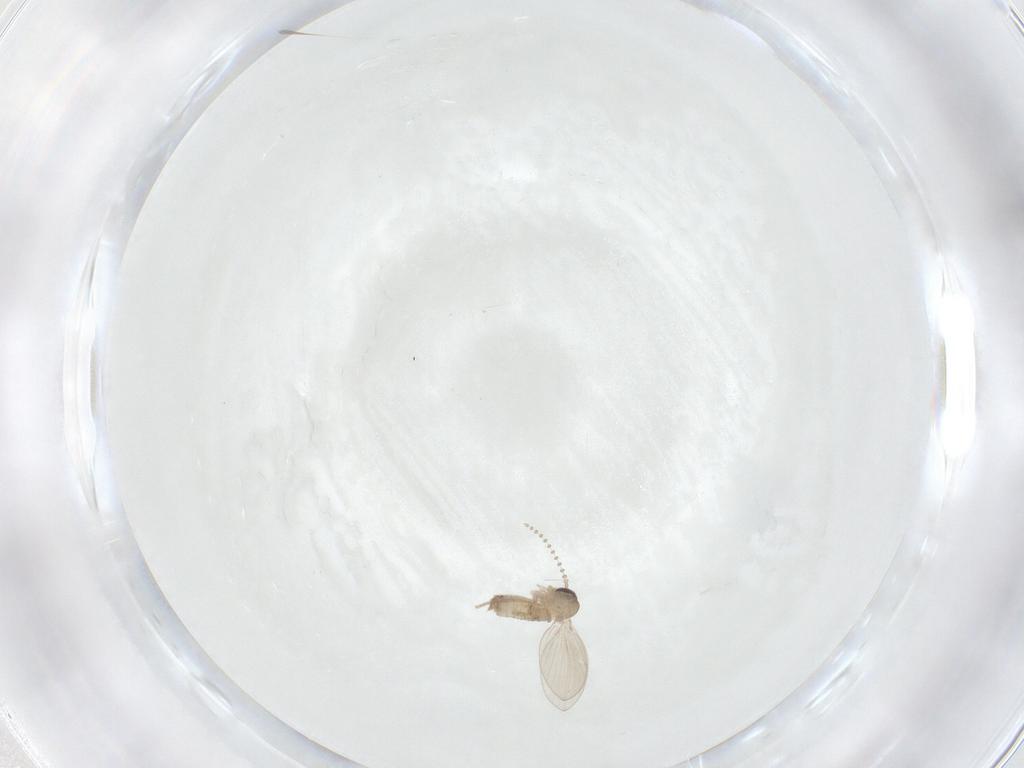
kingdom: Animalia
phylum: Arthropoda
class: Insecta
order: Diptera
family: Psychodidae
